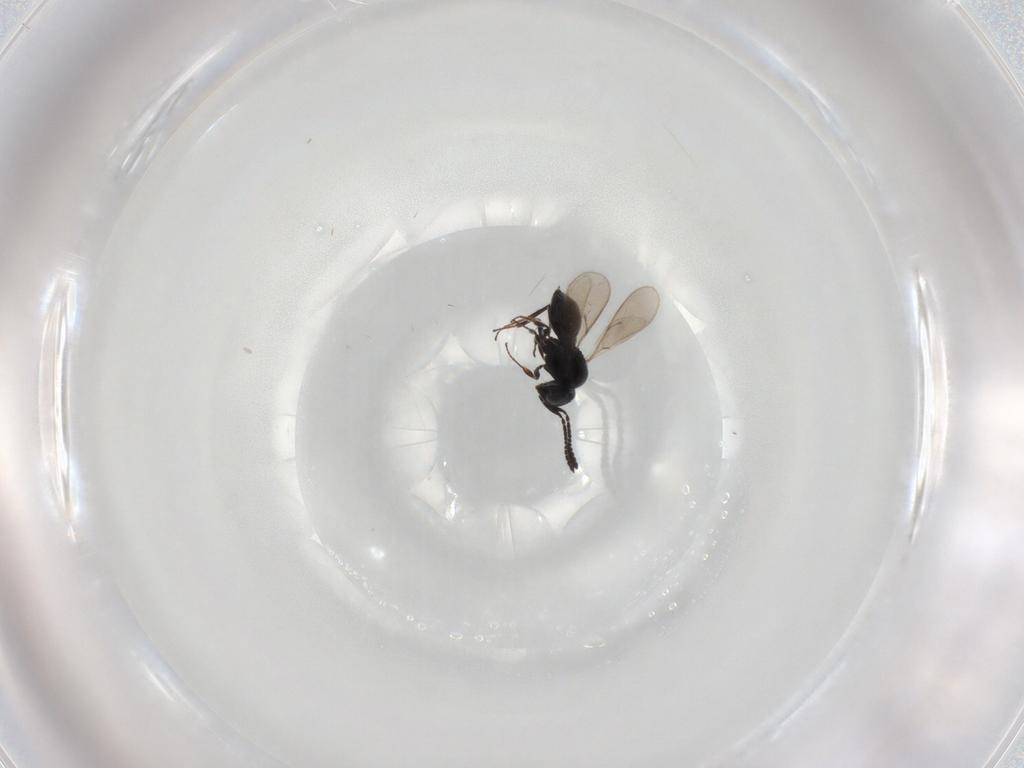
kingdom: Animalia
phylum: Arthropoda
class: Insecta
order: Hymenoptera
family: Scelionidae
